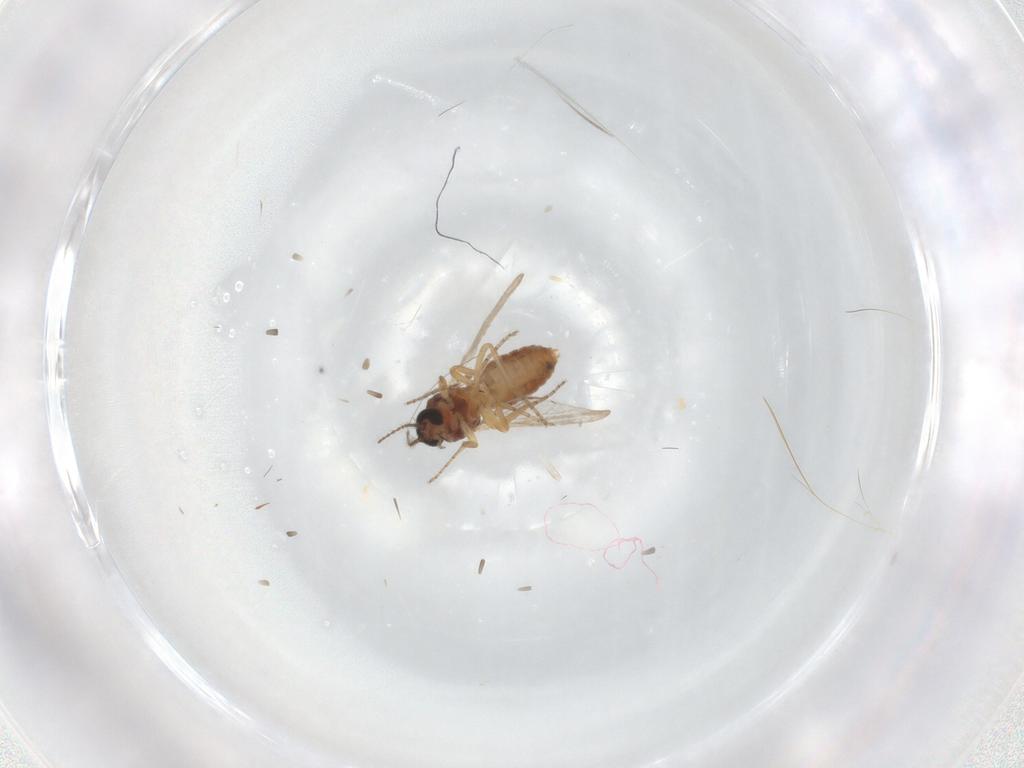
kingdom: Animalia
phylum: Arthropoda
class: Insecta
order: Diptera
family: Ceratopogonidae
